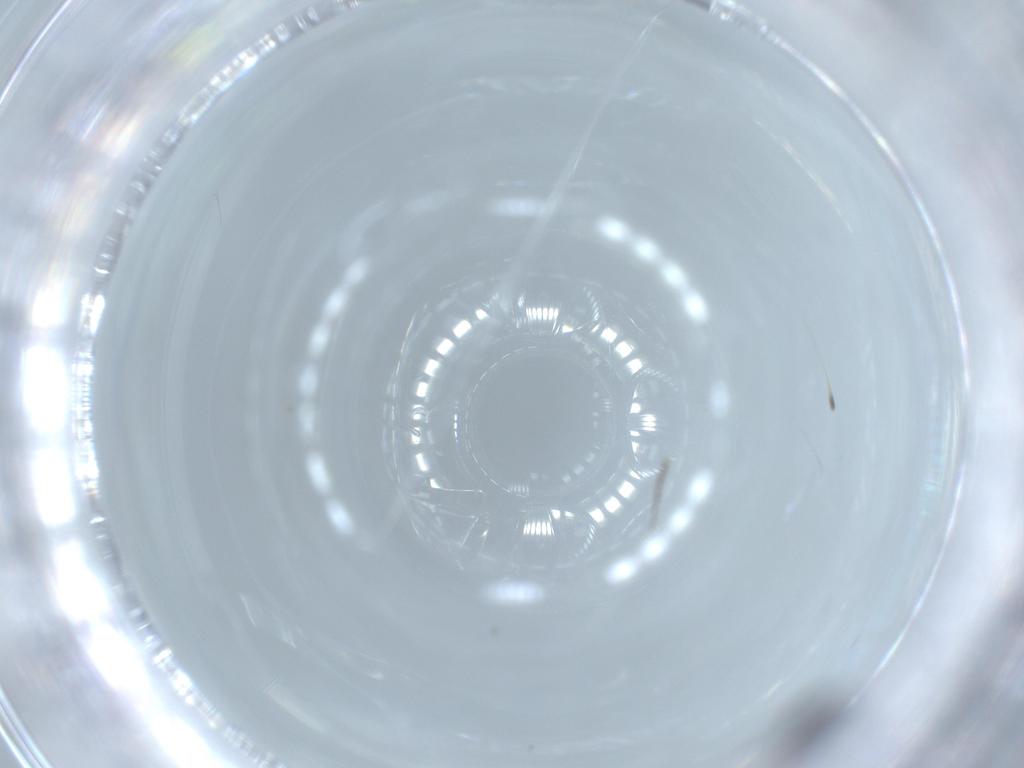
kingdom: Animalia
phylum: Arthropoda
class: Insecta
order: Diptera
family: Phoridae
